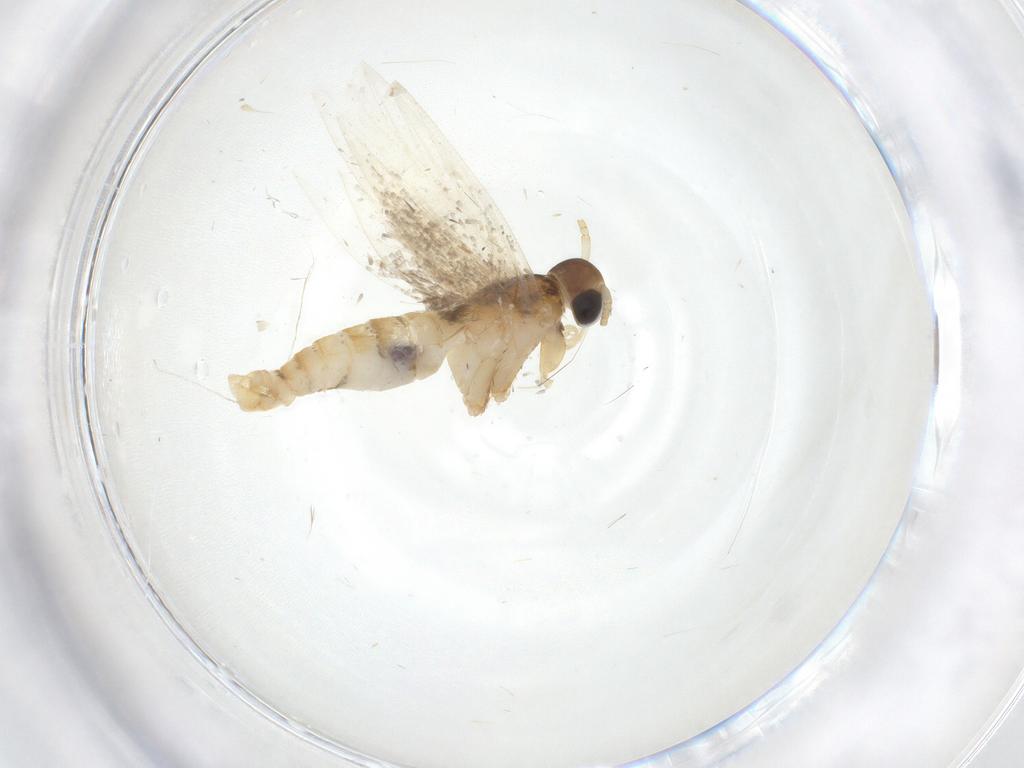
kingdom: Animalia
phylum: Arthropoda
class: Insecta
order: Lepidoptera
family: Oecophoridae
